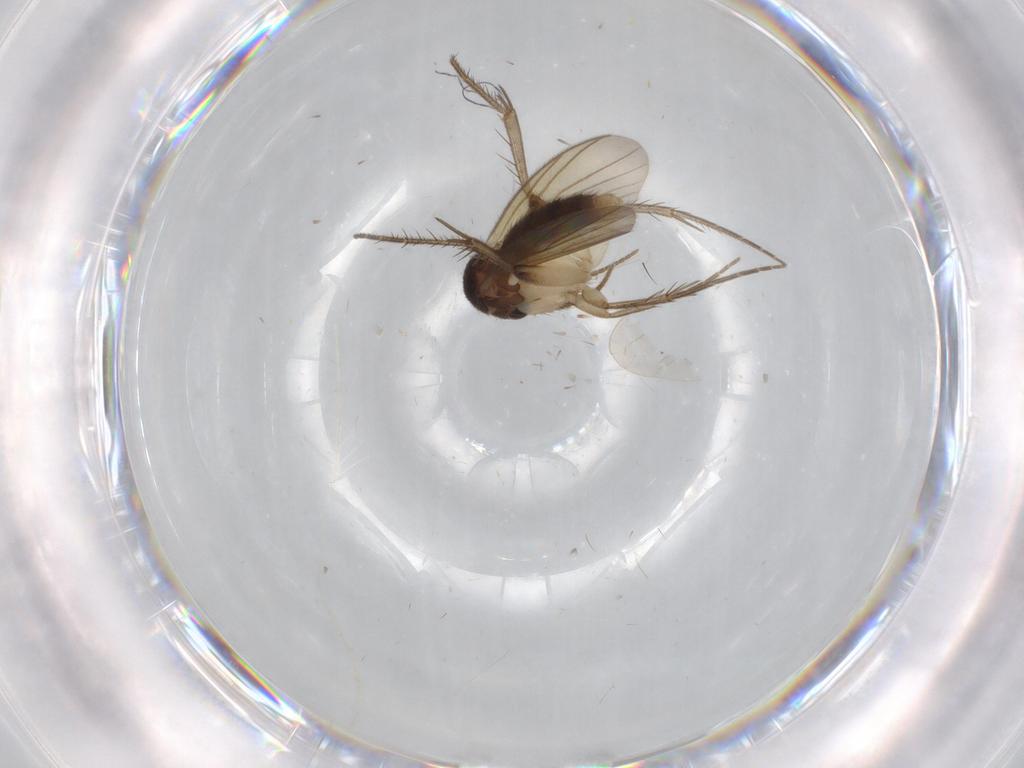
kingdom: Animalia
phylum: Arthropoda
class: Insecta
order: Diptera
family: Mycetophilidae
